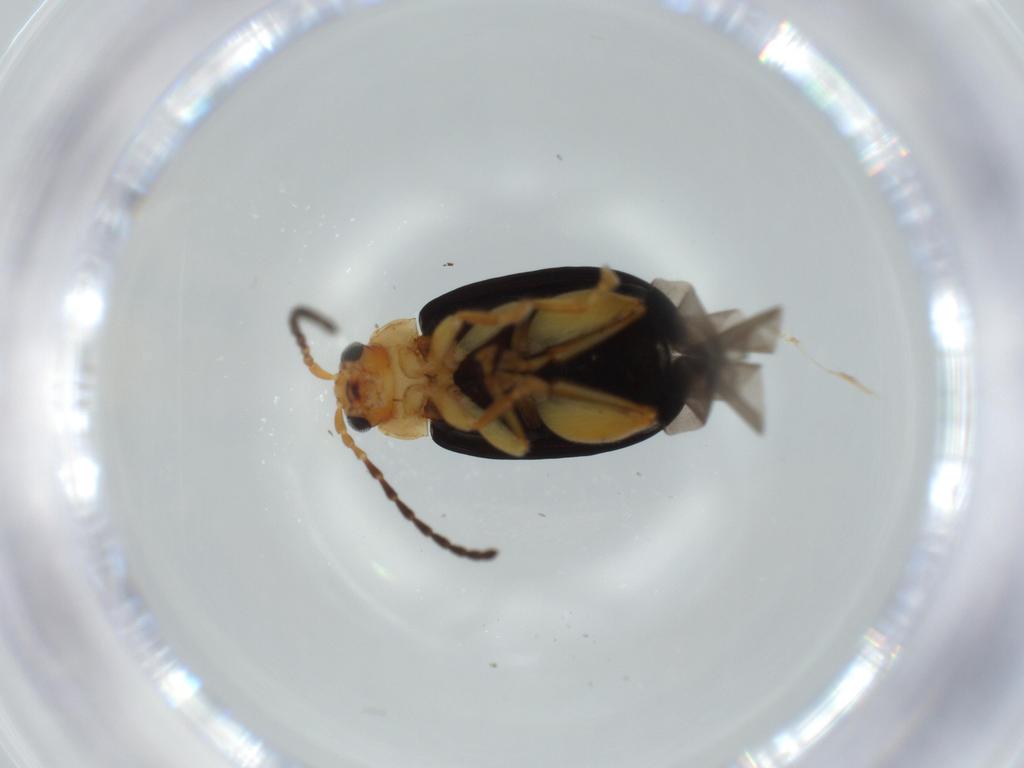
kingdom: Animalia
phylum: Arthropoda
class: Insecta
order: Coleoptera
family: Chrysomelidae
